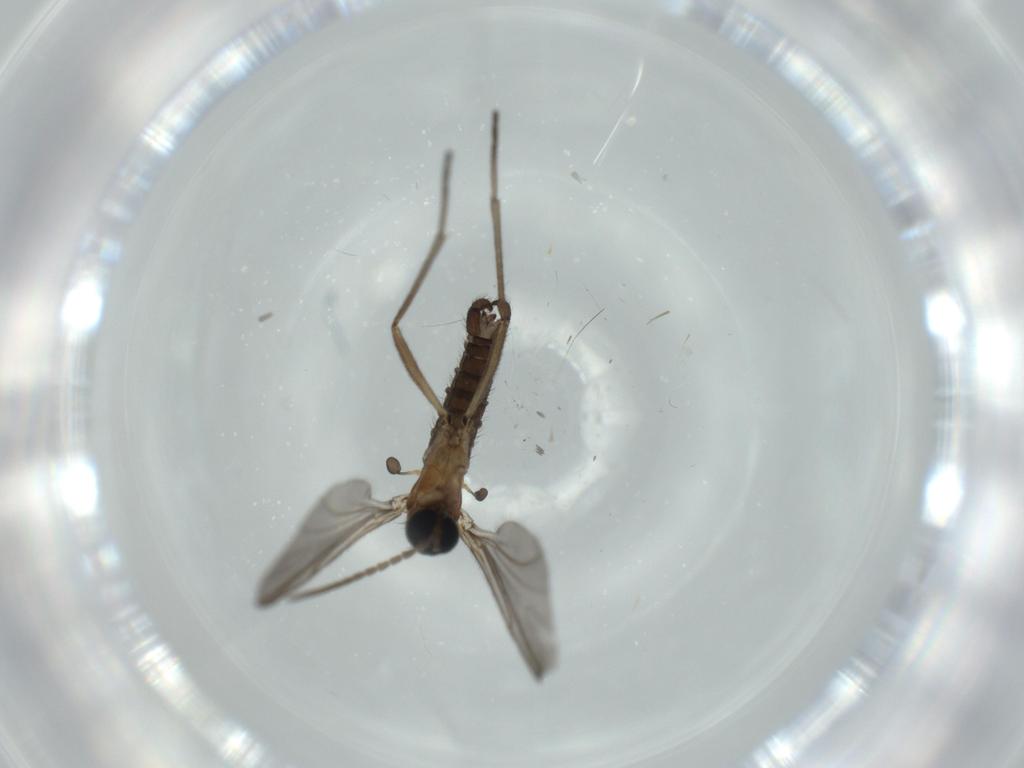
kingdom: Animalia
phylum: Arthropoda
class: Insecta
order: Diptera
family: Sciaridae
